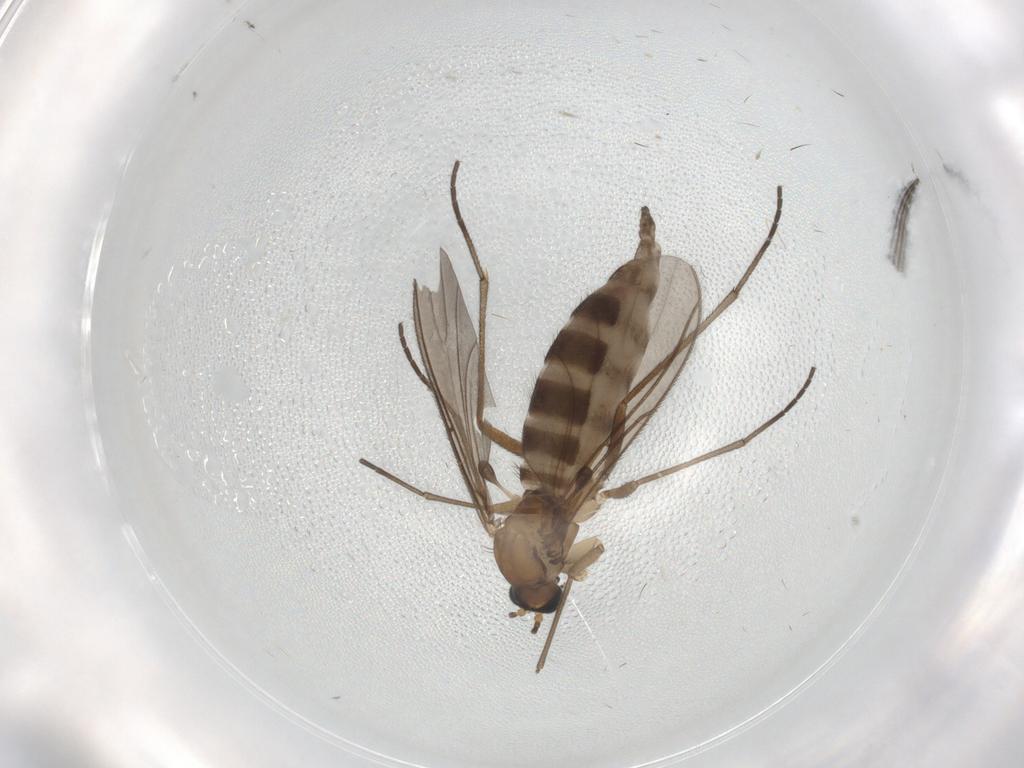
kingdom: Animalia
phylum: Arthropoda
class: Insecta
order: Diptera
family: Sciaridae
